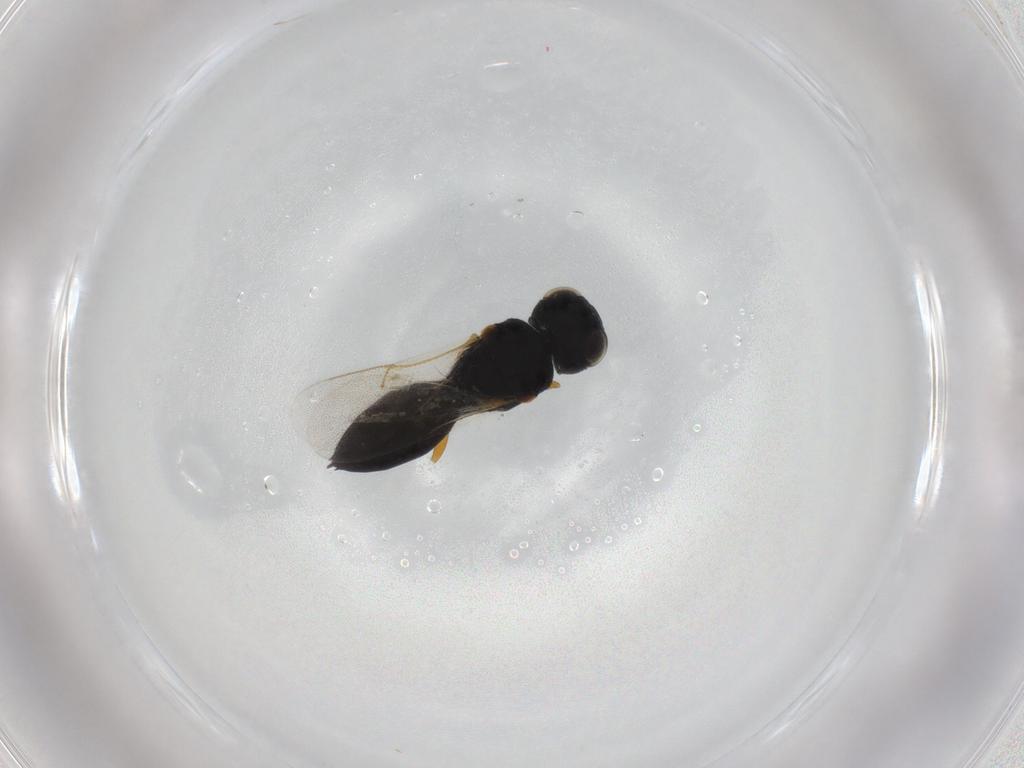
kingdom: Animalia
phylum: Arthropoda
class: Insecta
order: Hymenoptera
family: Scelionidae
